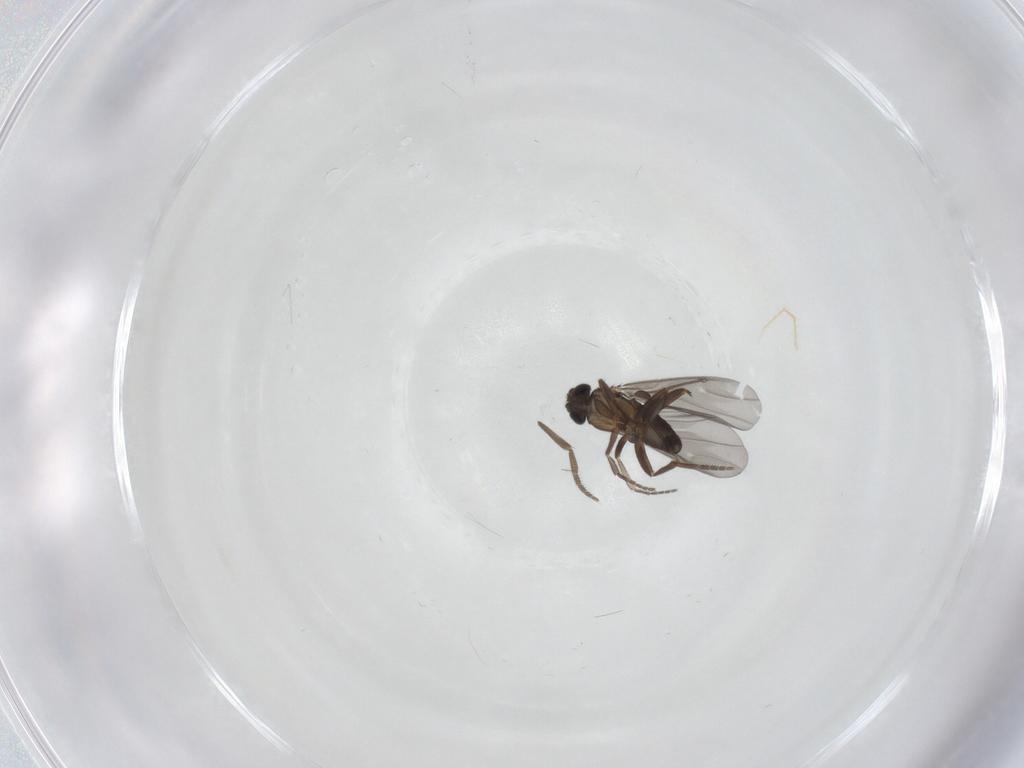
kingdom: Animalia
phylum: Arthropoda
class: Insecta
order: Diptera
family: Phoridae
